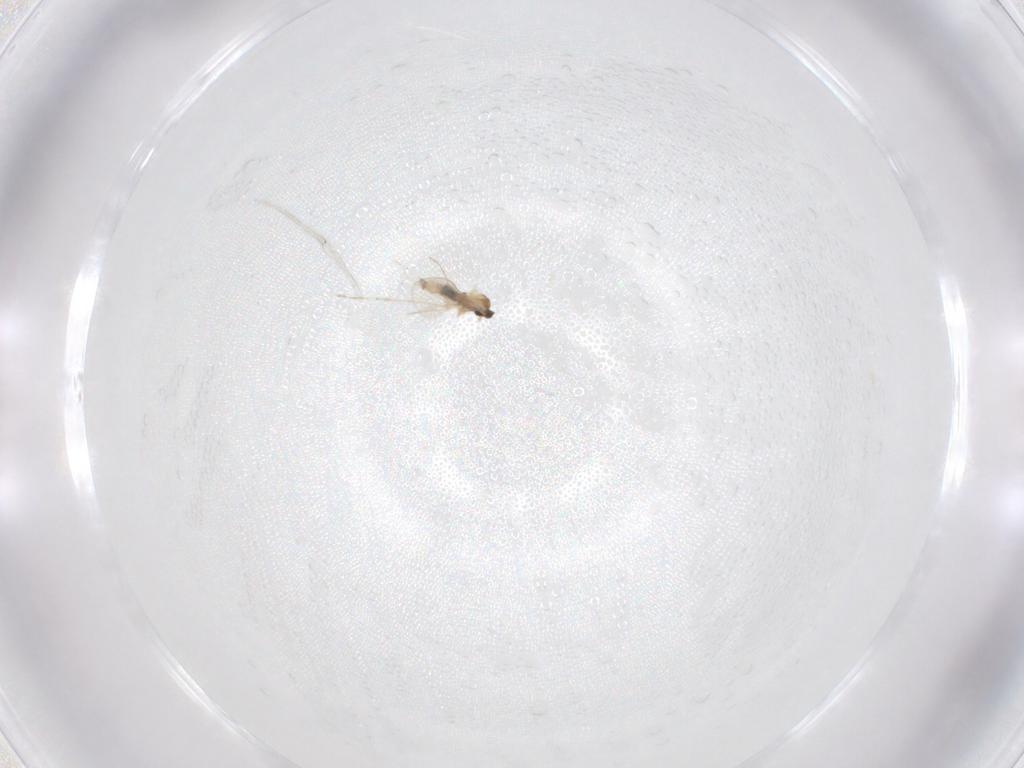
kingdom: Animalia
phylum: Arthropoda
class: Insecta
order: Diptera
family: Cecidomyiidae
